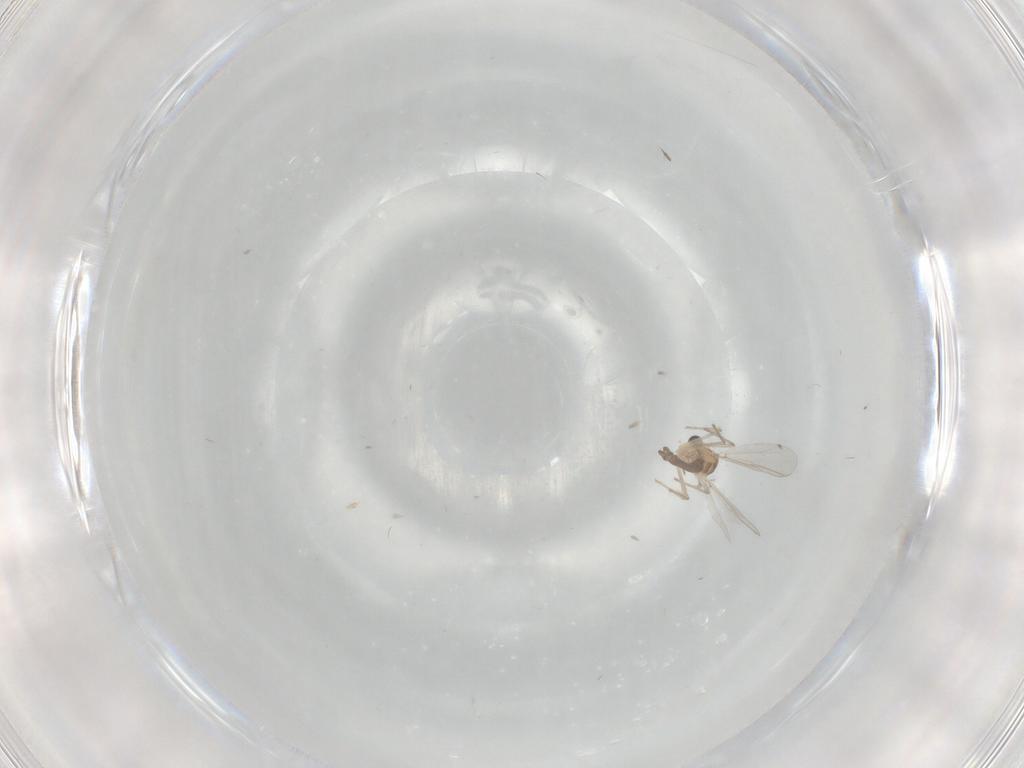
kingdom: Animalia
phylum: Arthropoda
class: Insecta
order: Diptera
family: Chironomidae
